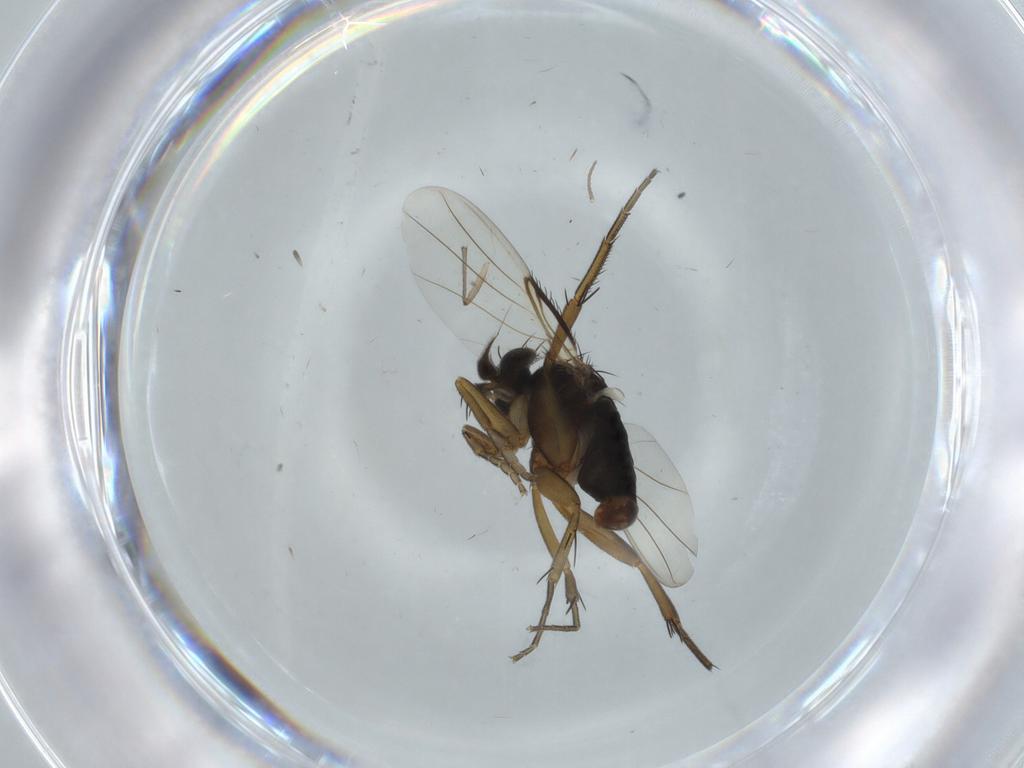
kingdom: Animalia
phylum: Arthropoda
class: Insecta
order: Diptera
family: Phoridae
